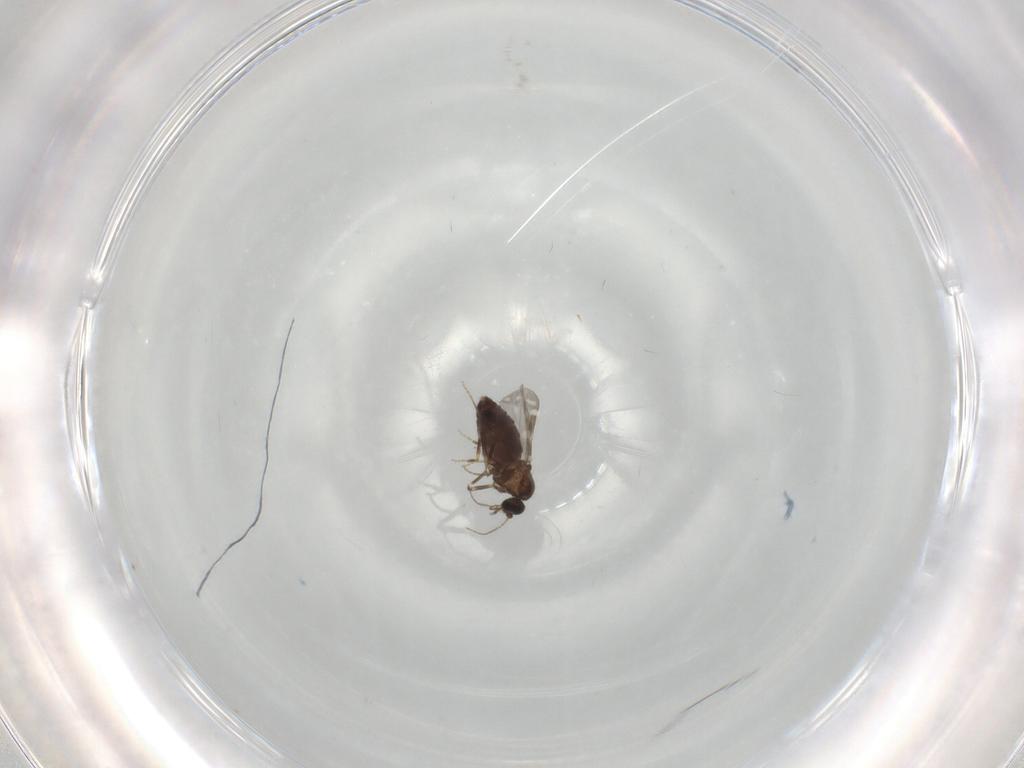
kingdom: Animalia
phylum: Arthropoda
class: Insecta
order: Diptera
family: Ceratopogonidae
